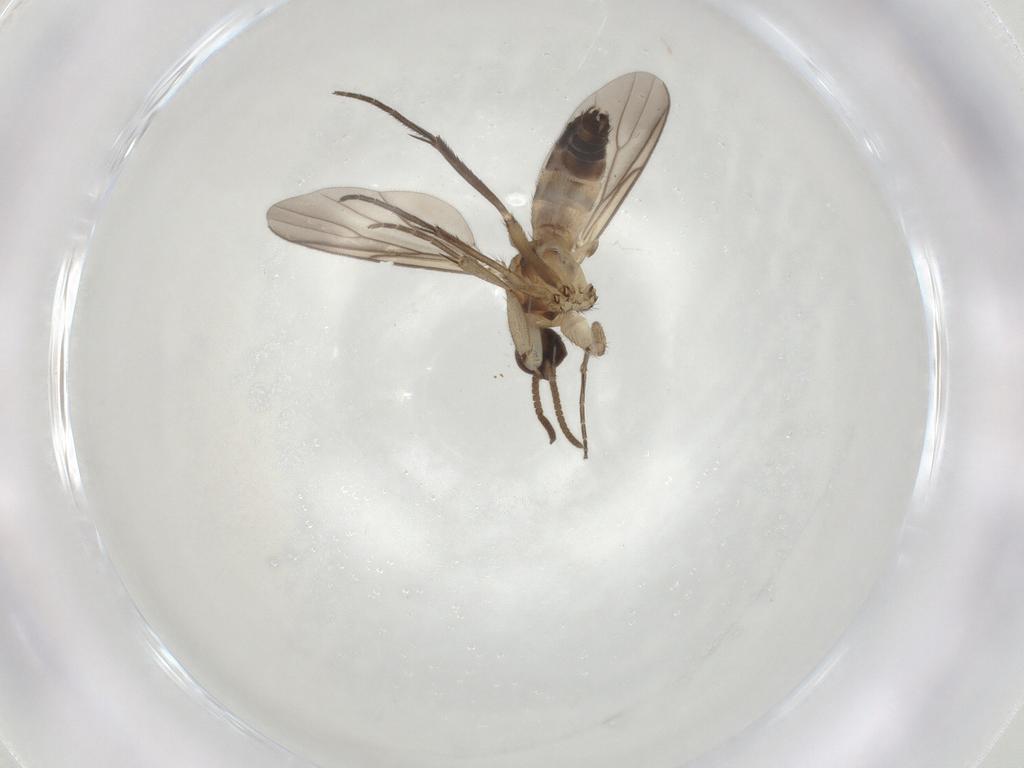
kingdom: Animalia
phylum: Arthropoda
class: Insecta
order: Diptera
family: Mycetophilidae
